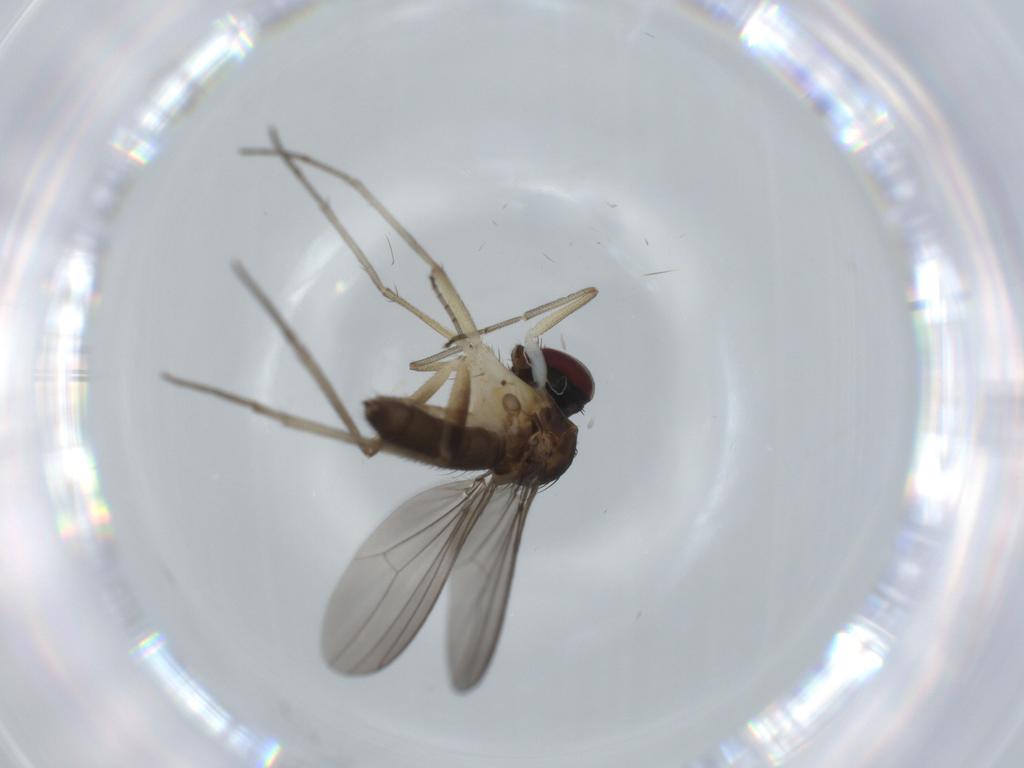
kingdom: Animalia
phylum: Arthropoda
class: Insecta
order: Diptera
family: Dolichopodidae
